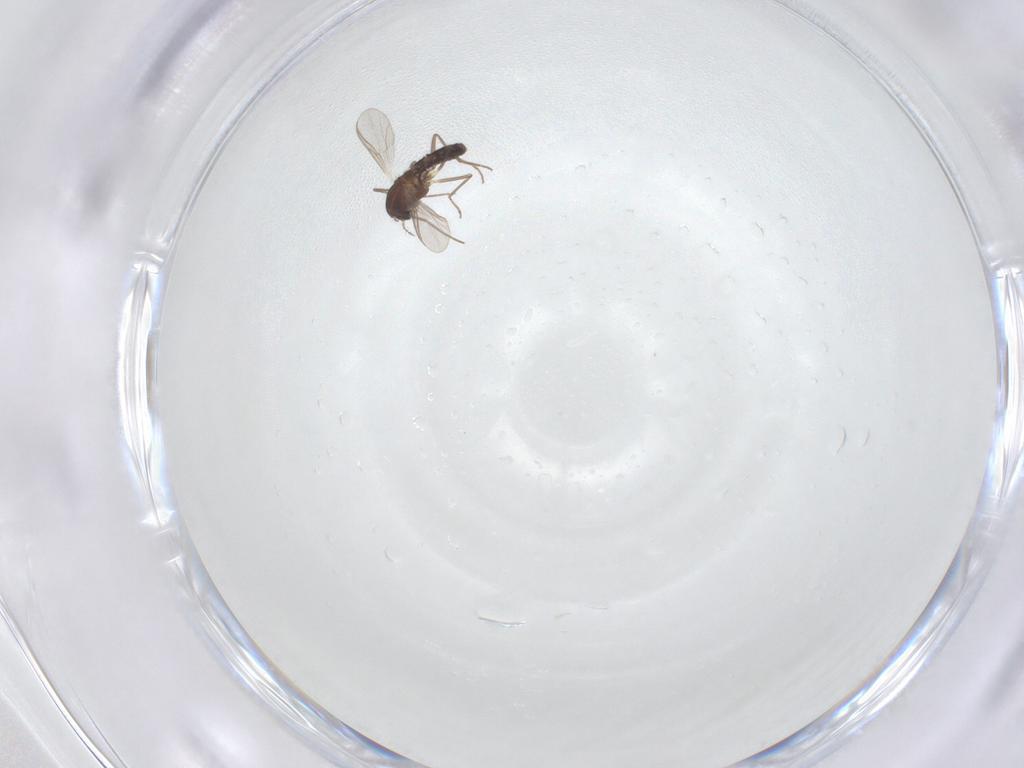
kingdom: Animalia
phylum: Arthropoda
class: Insecta
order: Diptera
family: Chironomidae
